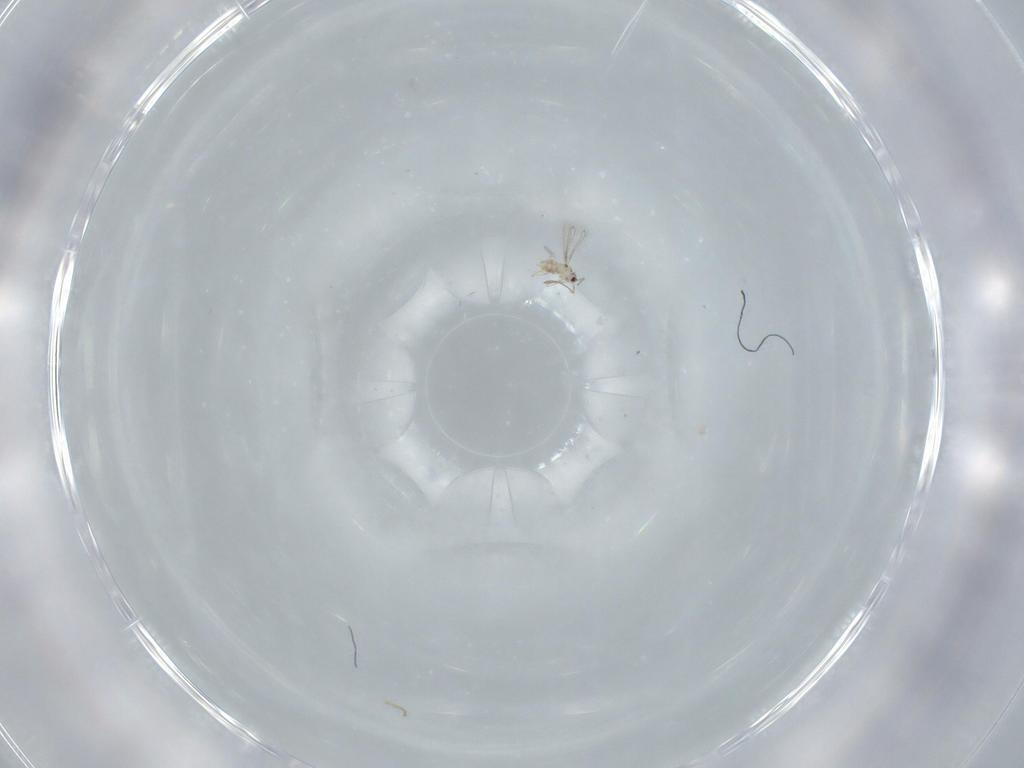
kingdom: Animalia
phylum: Arthropoda
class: Insecta
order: Hymenoptera
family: Mymaridae
